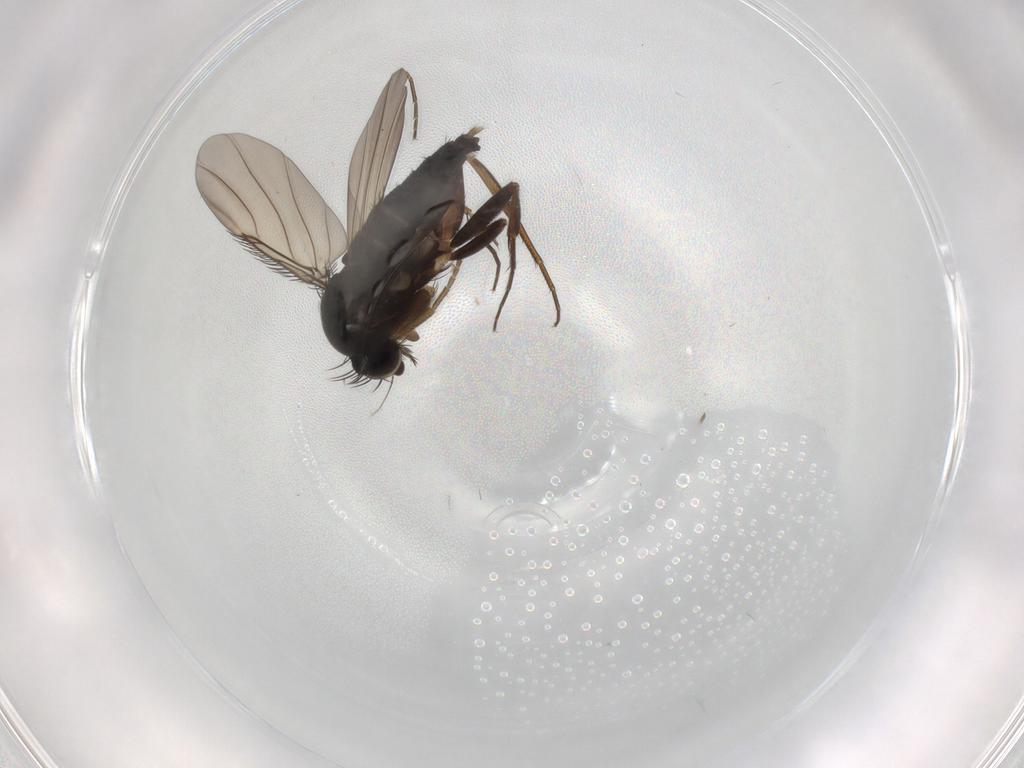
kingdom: Animalia
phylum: Arthropoda
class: Insecta
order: Diptera
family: Phoridae
